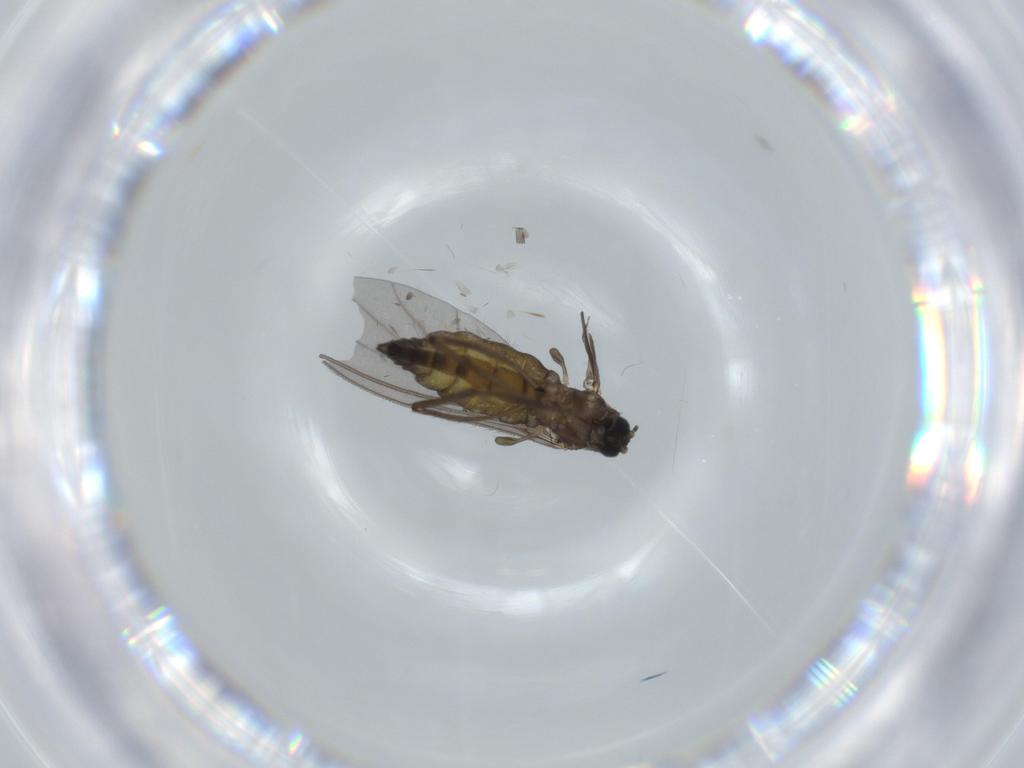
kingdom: Animalia
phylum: Arthropoda
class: Insecta
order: Diptera
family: Sciaridae
